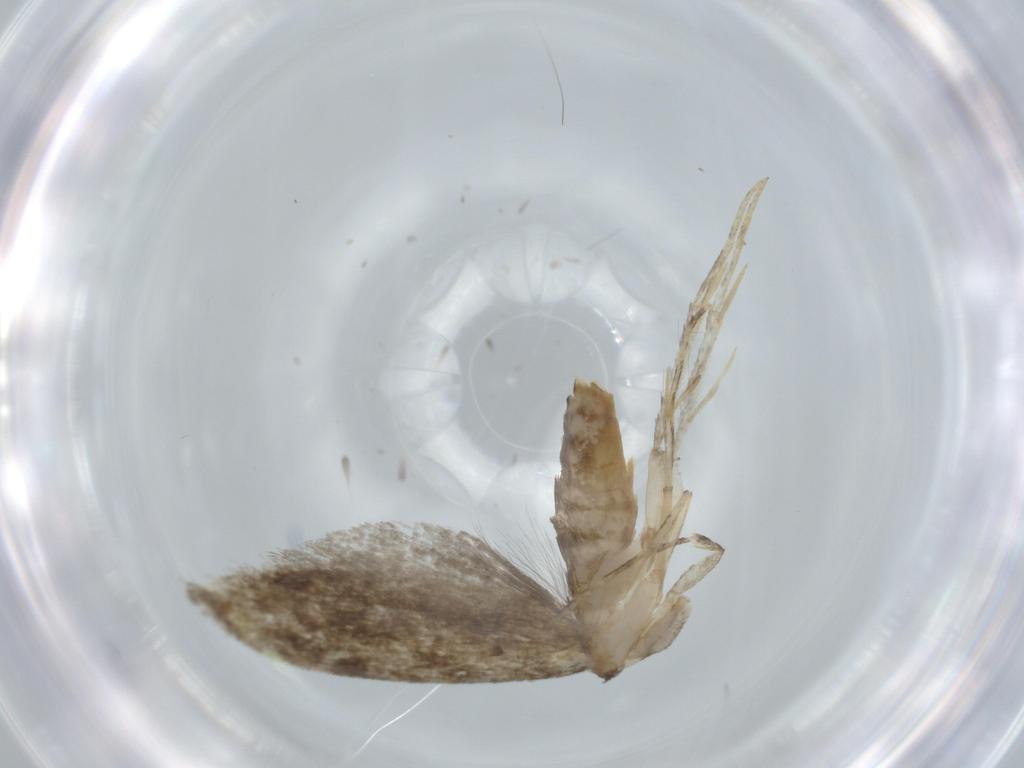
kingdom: Animalia
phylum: Arthropoda
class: Insecta
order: Lepidoptera
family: Tineidae
